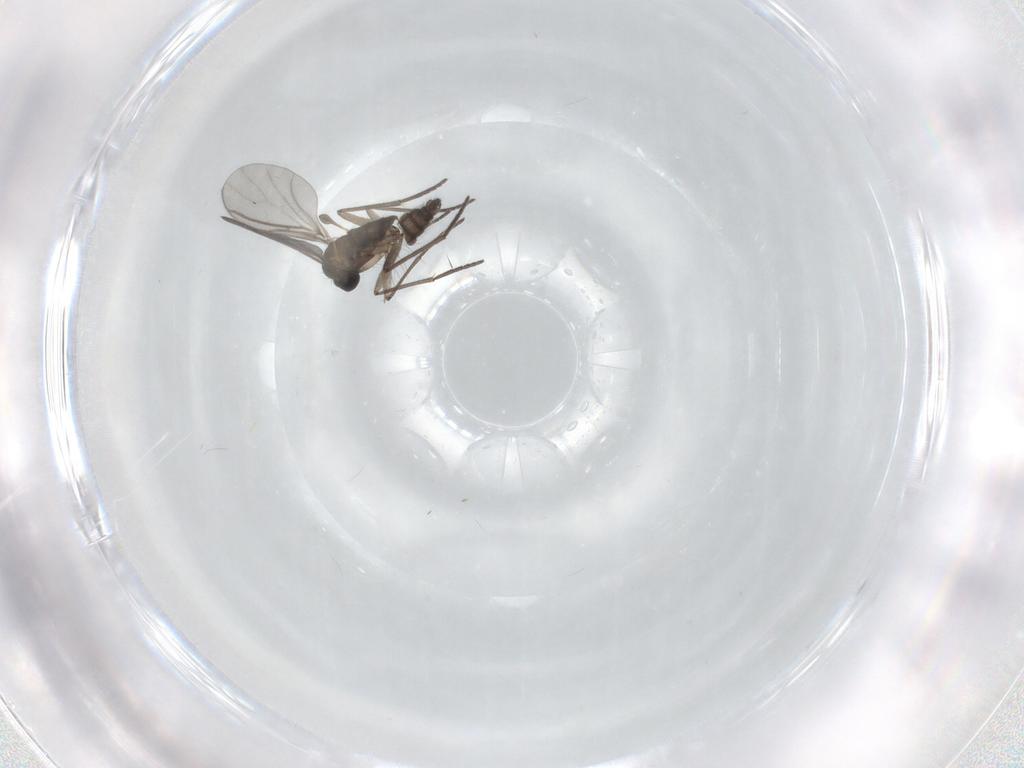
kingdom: Animalia
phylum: Arthropoda
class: Insecta
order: Diptera
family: Chironomidae
